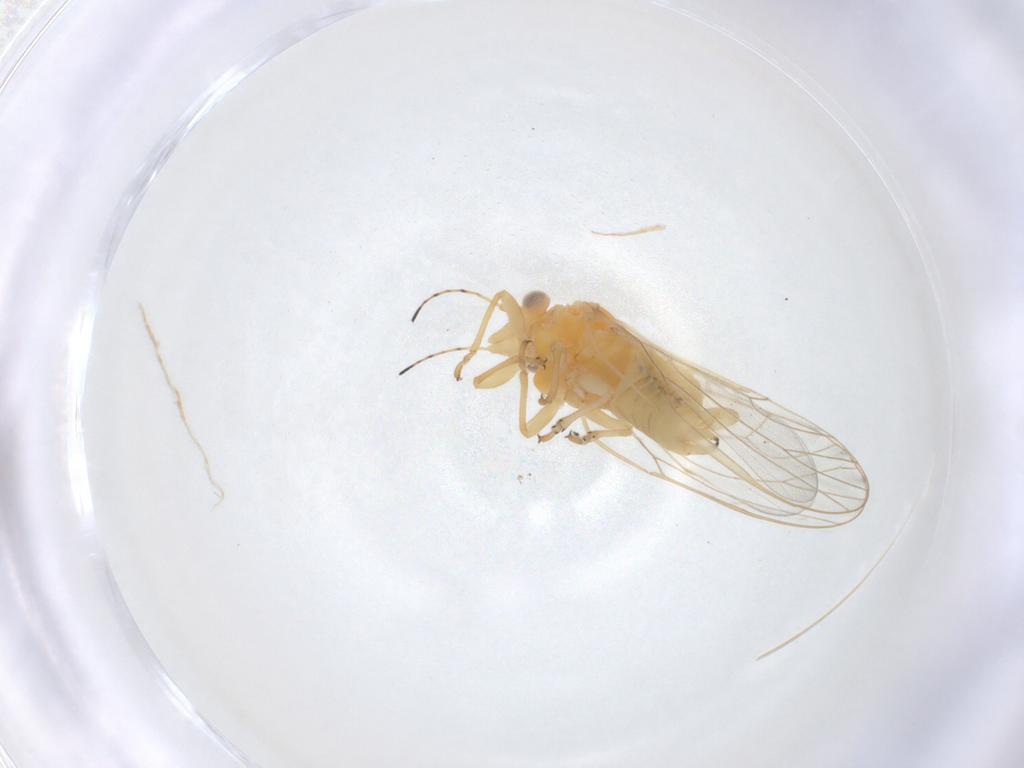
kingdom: Animalia
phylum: Arthropoda
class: Insecta
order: Hemiptera
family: Psyllidae
